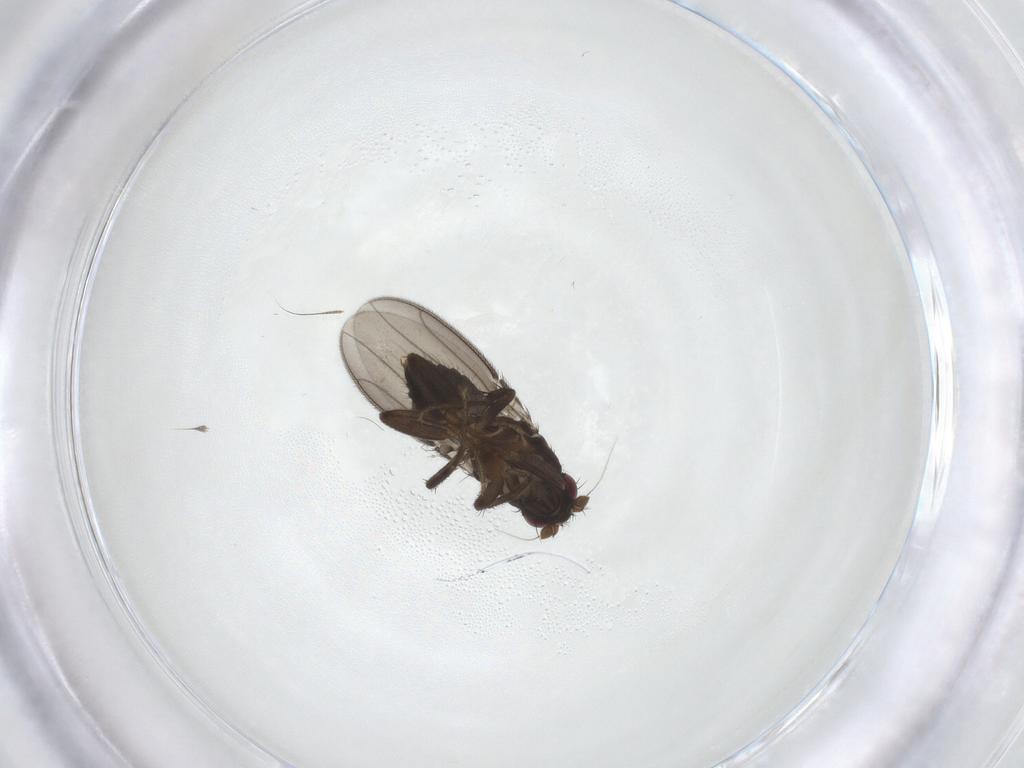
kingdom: Animalia
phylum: Arthropoda
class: Insecta
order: Diptera
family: Sphaeroceridae
